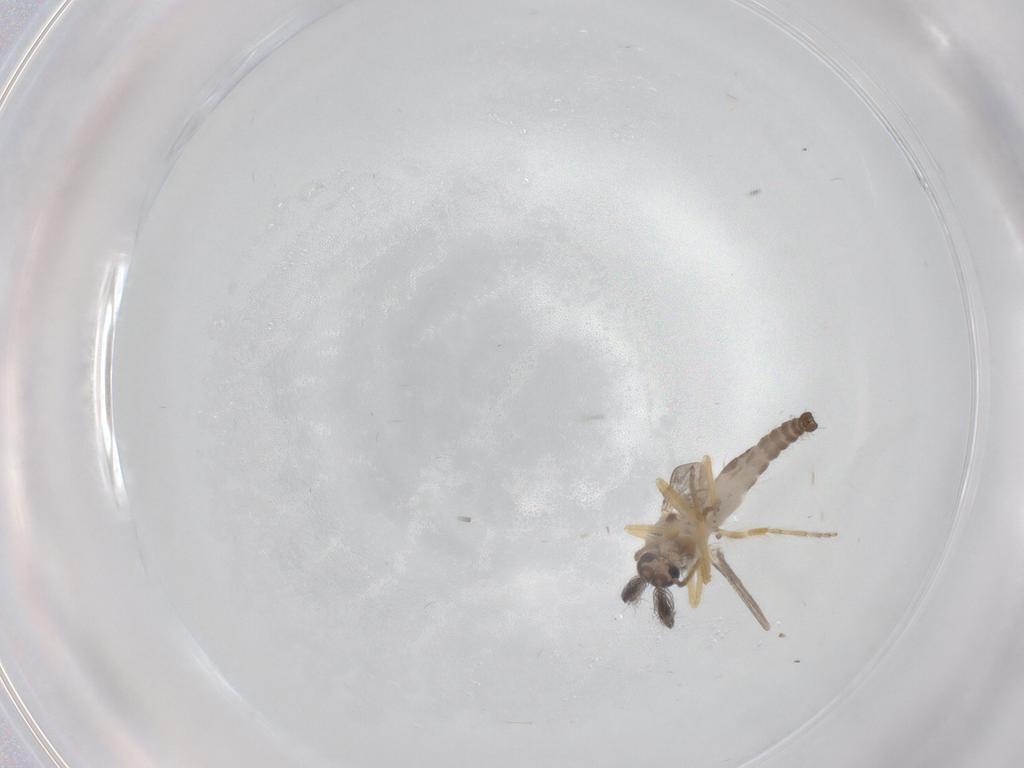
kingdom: Animalia
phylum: Arthropoda
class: Insecta
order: Diptera
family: Ceratopogonidae
